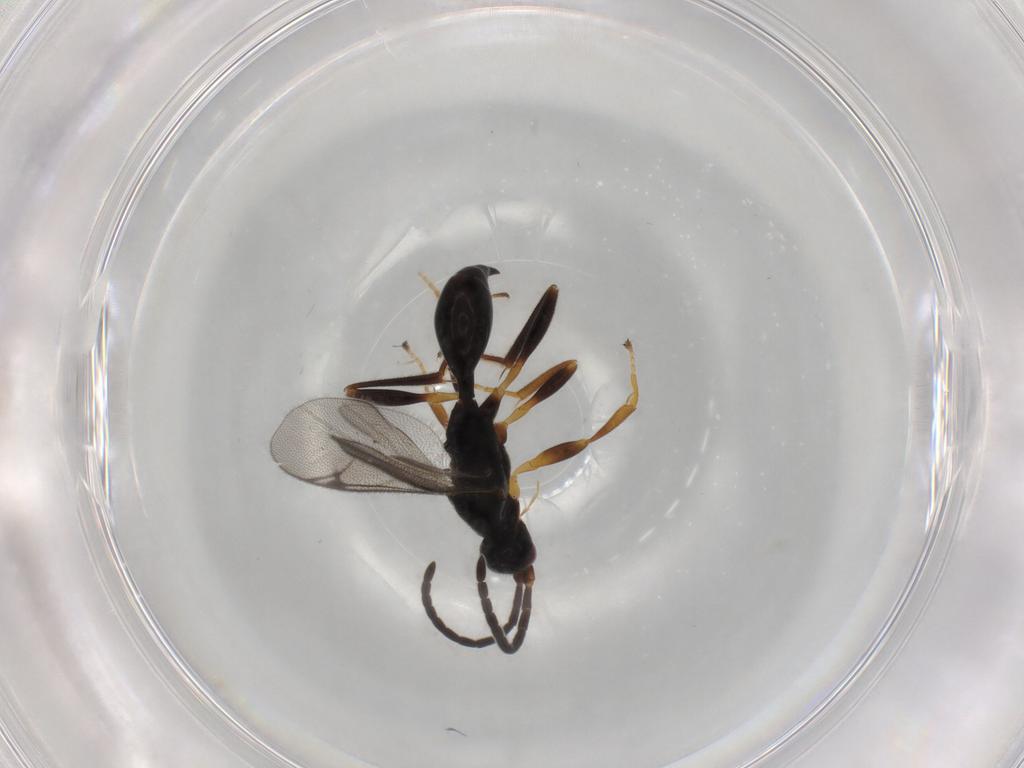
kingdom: Animalia
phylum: Arthropoda
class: Insecta
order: Hymenoptera
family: Proctotrupidae
